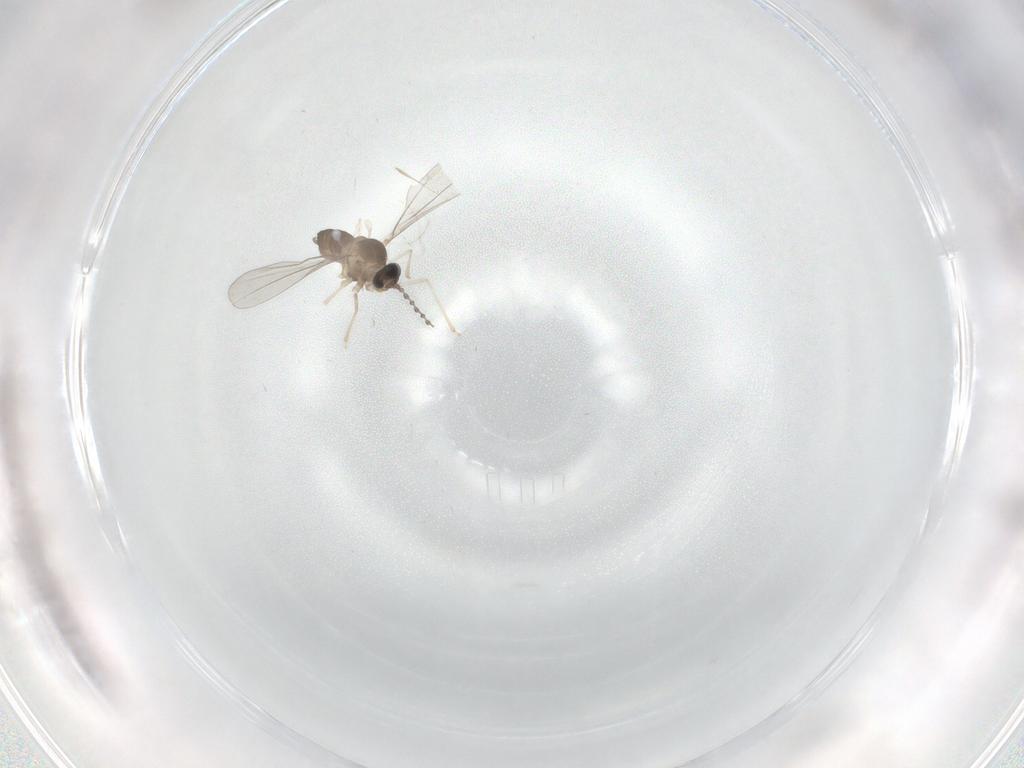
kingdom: Animalia
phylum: Arthropoda
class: Insecta
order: Diptera
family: Cecidomyiidae
